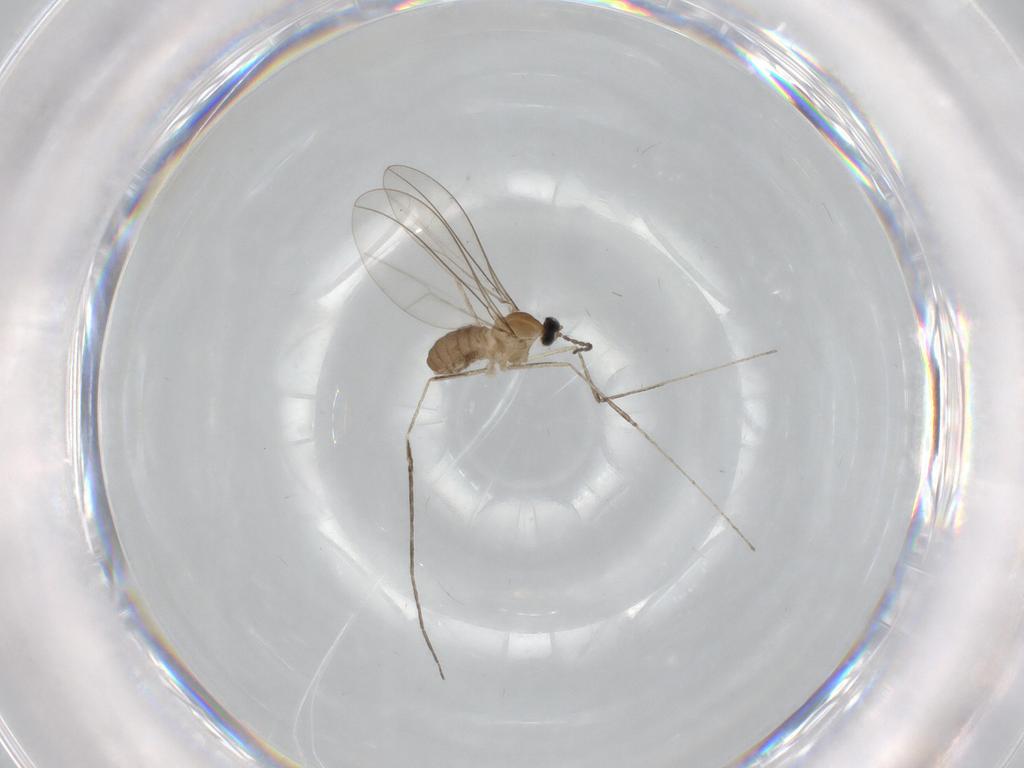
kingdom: Animalia
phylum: Arthropoda
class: Insecta
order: Diptera
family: Cecidomyiidae
